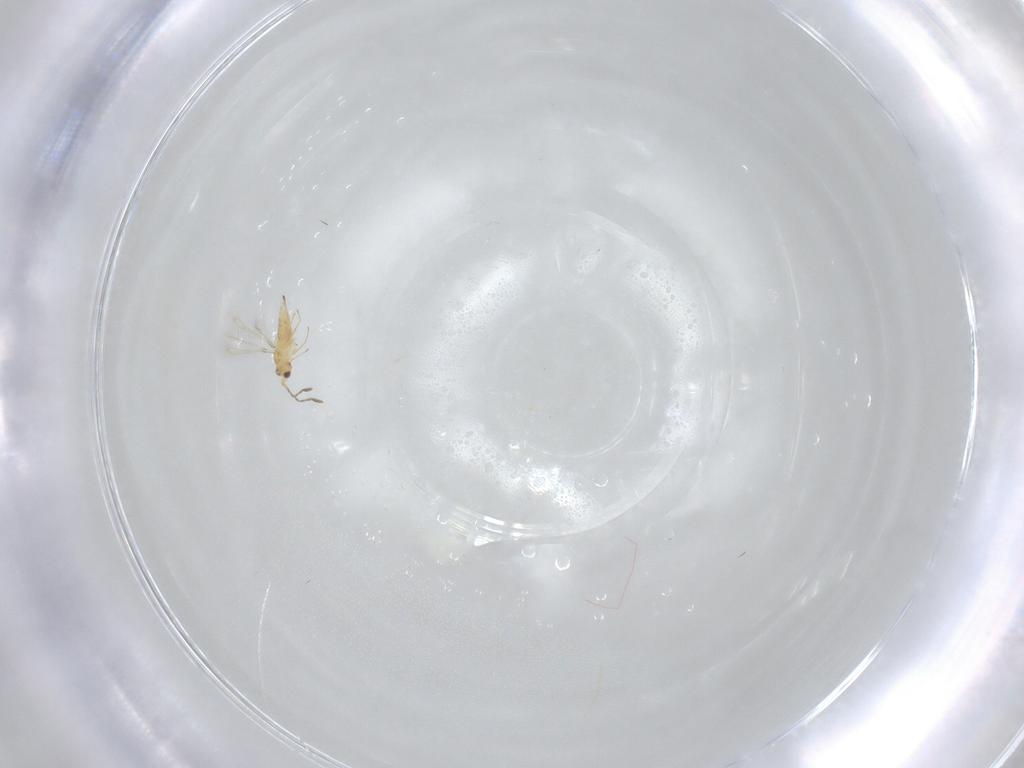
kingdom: Animalia
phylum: Arthropoda
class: Insecta
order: Hymenoptera
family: Mymaridae
